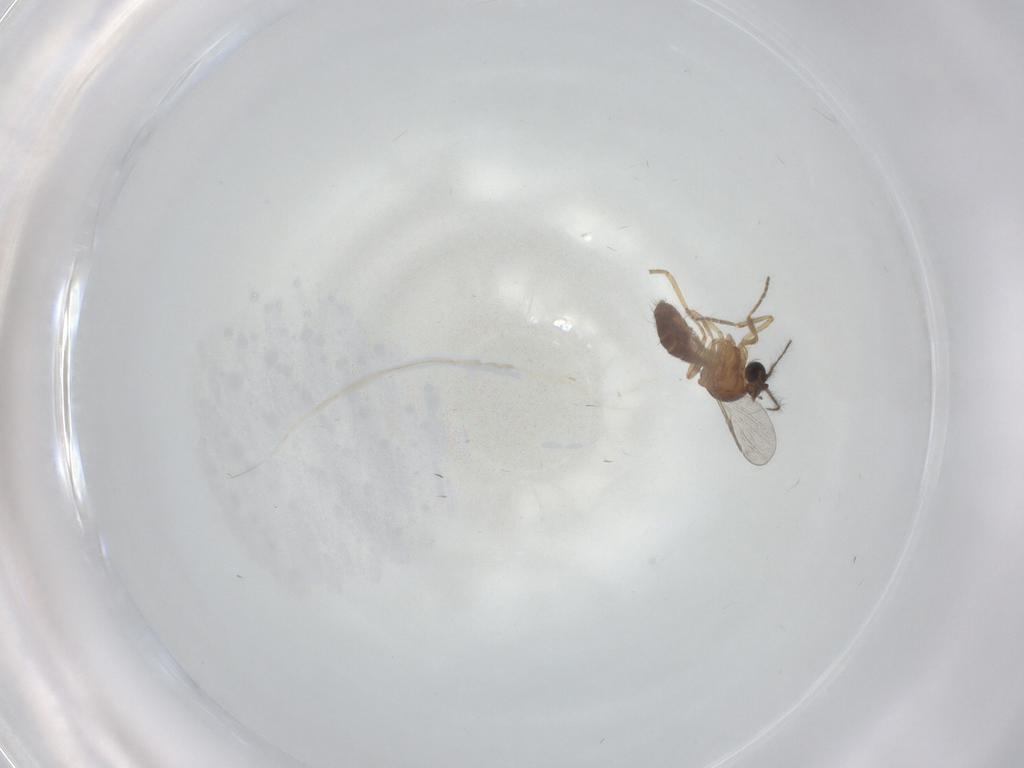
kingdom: Animalia
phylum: Arthropoda
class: Insecta
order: Diptera
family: Ceratopogonidae
